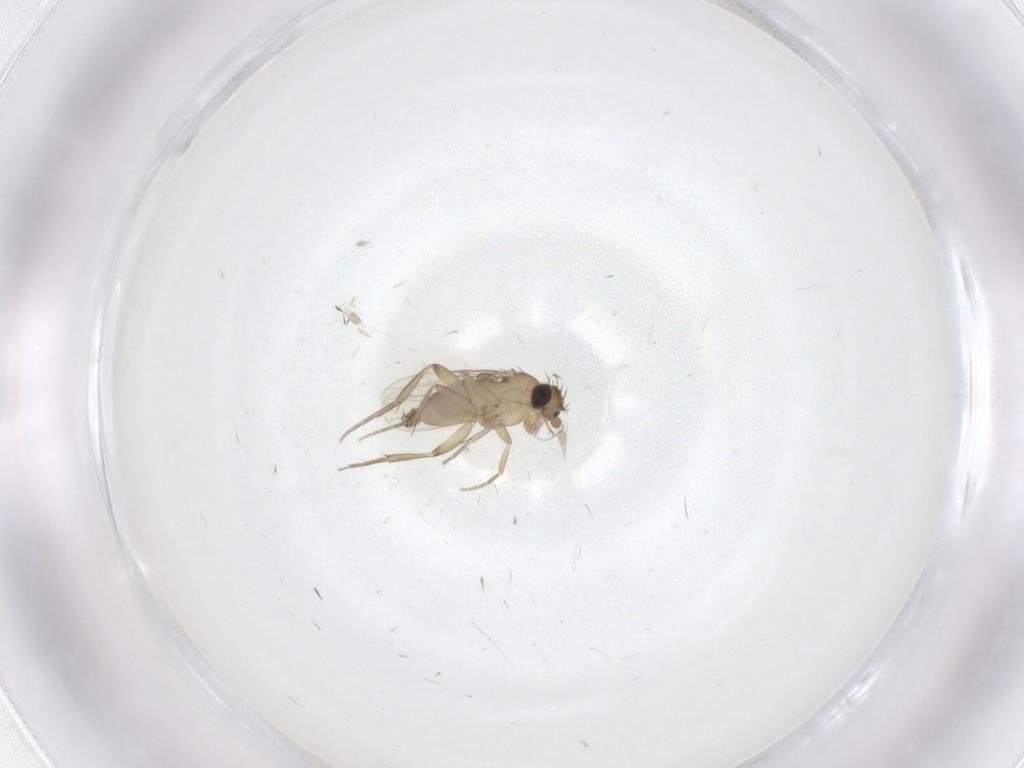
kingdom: Animalia
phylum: Arthropoda
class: Insecta
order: Diptera
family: Phoridae
